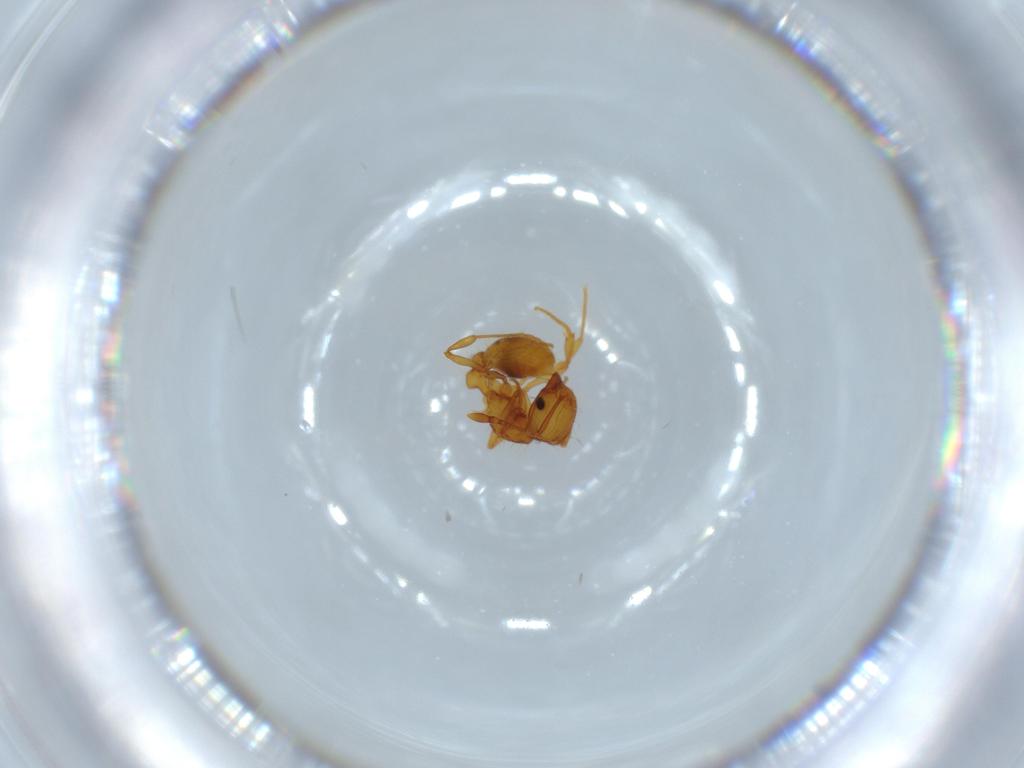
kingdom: Animalia
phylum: Arthropoda
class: Insecta
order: Hymenoptera
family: Formicidae
